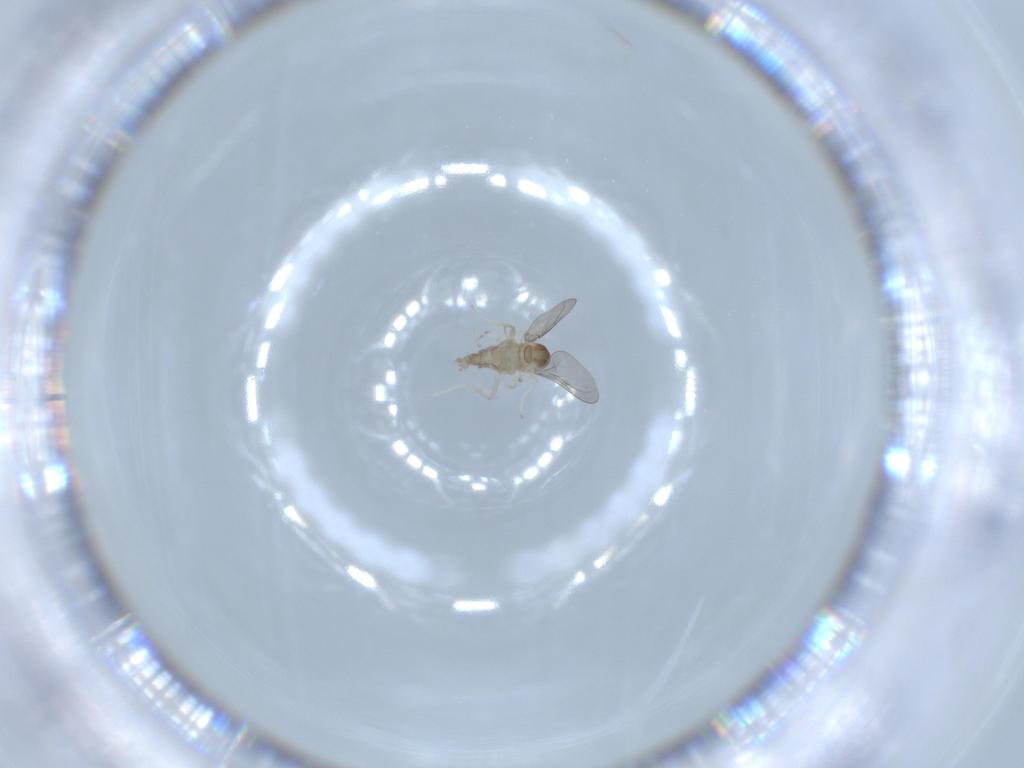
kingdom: Animalia
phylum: Arthropoda
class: Insecta
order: Diptera
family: Cecidomyiidae
